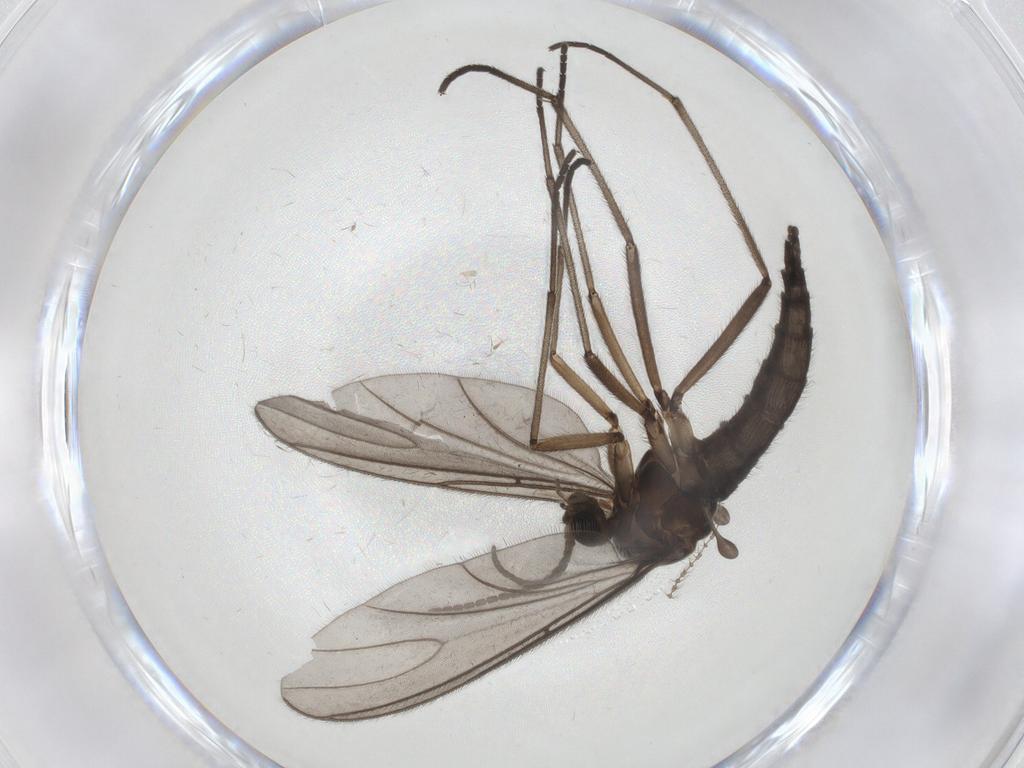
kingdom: Animalia
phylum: Arthropoda
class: Insecta
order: Diptera
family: Sciaridae
